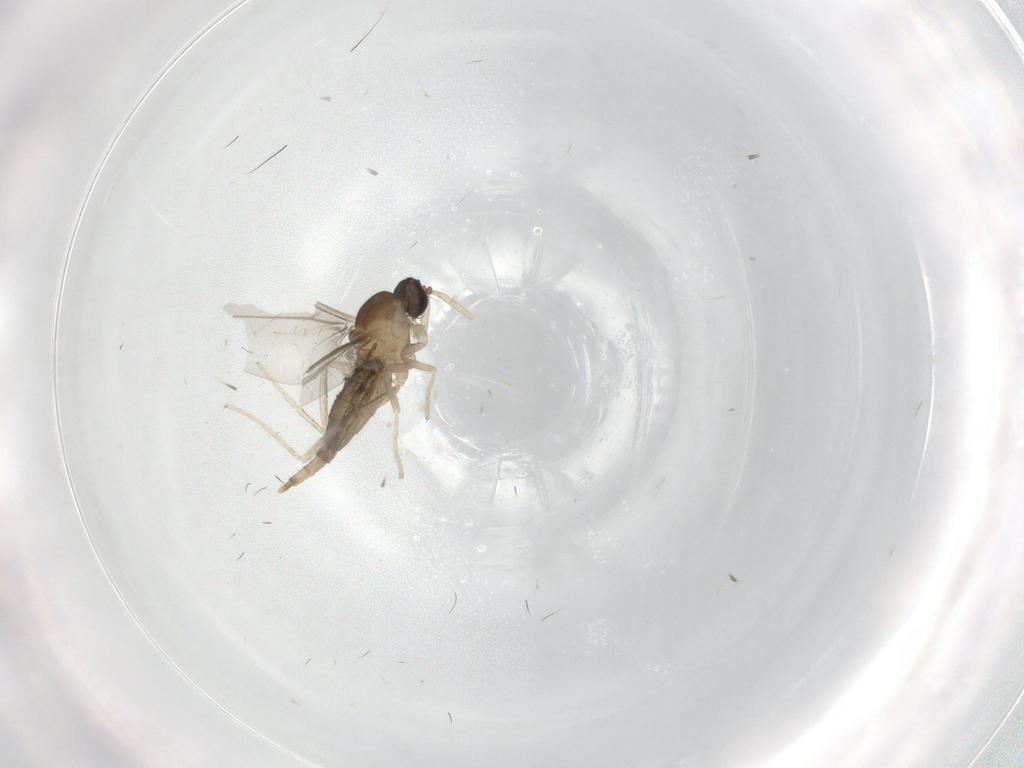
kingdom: Animalia
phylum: Arthropoda
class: Insecta
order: Diptera
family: Cecidomyiidae
